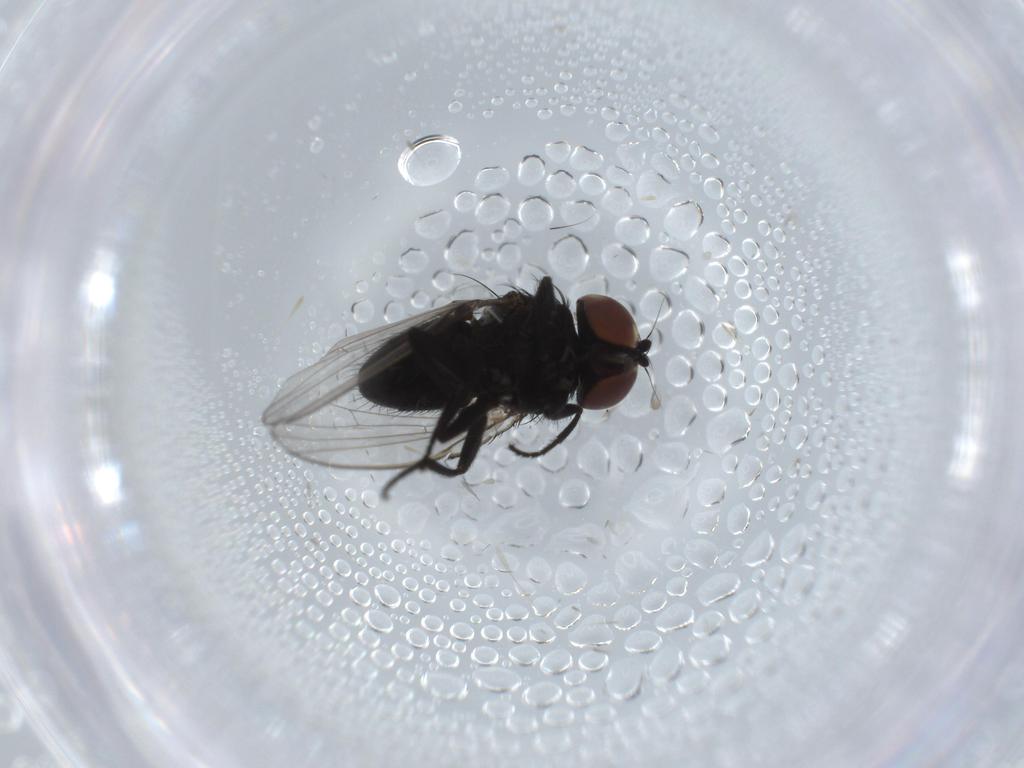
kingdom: Animalia
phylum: Arthropoda
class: Insecta
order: Diptera
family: Milichiidae
